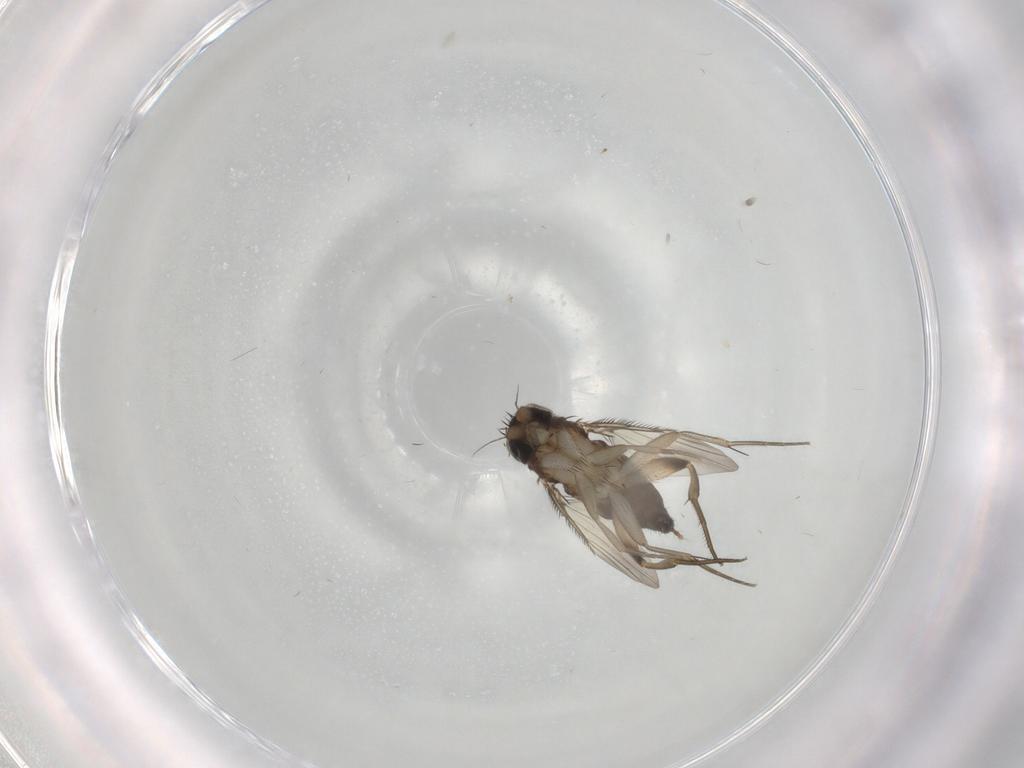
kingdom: Animalia
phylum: Arthropoda
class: Insecta
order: Diptera
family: Phoridae
